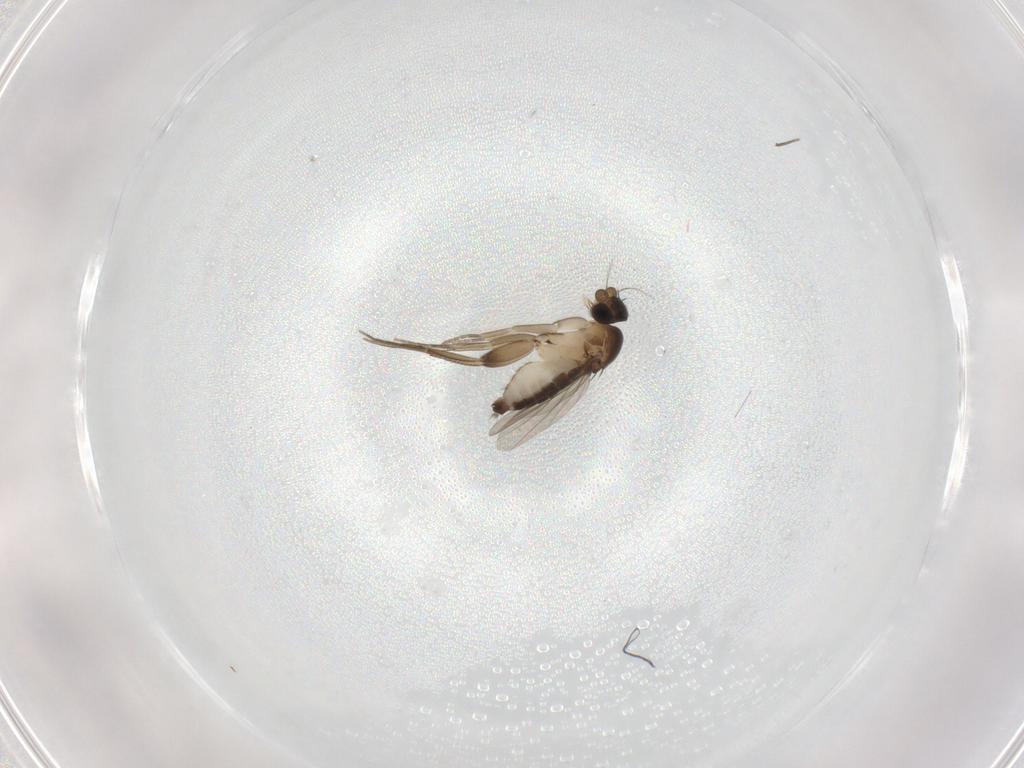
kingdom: Animalia
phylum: Arthropoda
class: Insecta
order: Diptera
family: Phoridae
